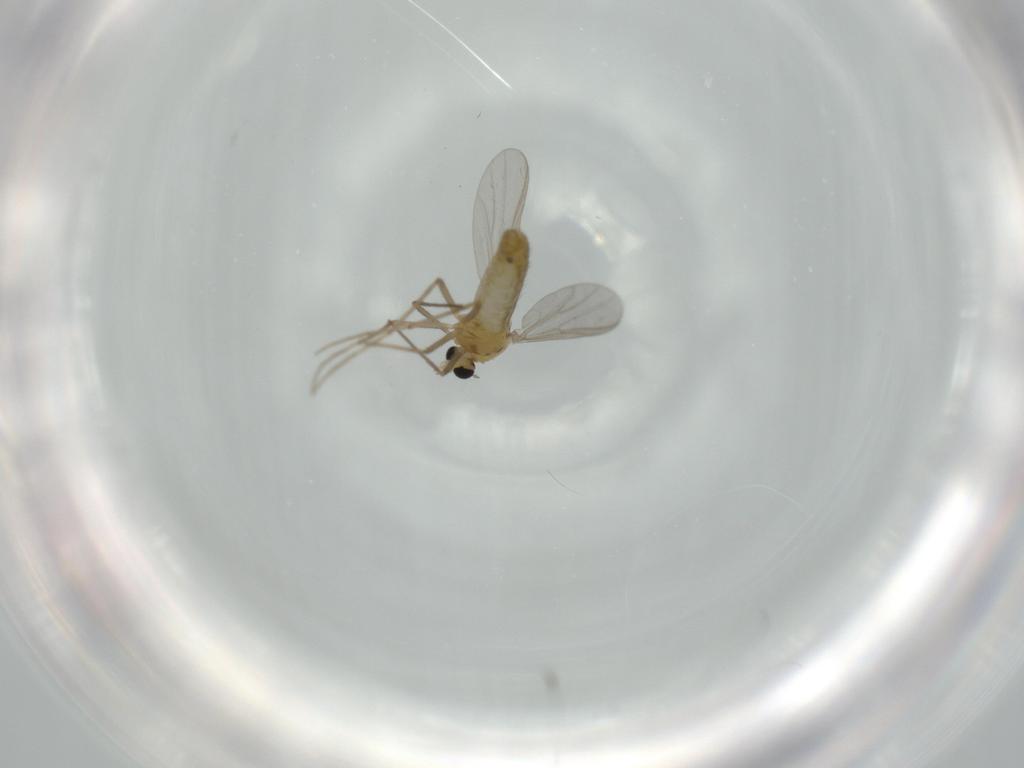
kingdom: Animalia
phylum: Arthropoda
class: Insecta
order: Diptera
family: Chironomidae
